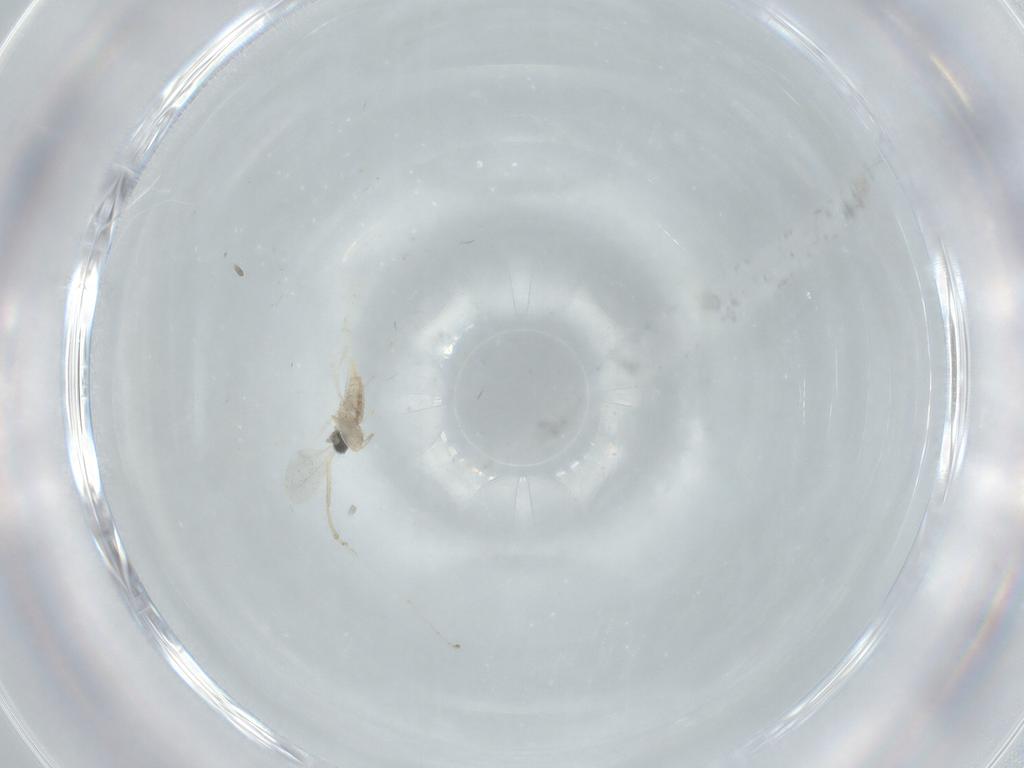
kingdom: Animalia
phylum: Arthropoda
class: Insecta
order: Diptera
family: Cecidomyiidae
